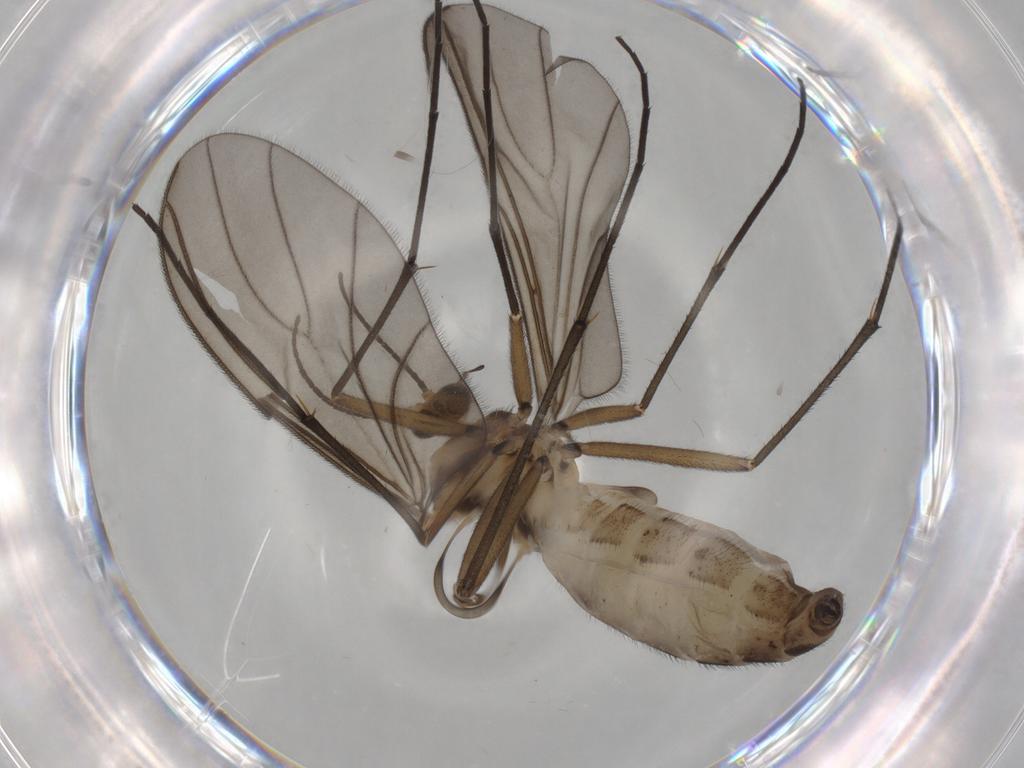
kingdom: Animalia
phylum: Arthropoda
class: Insecta
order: Diptera
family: Sciaridae
